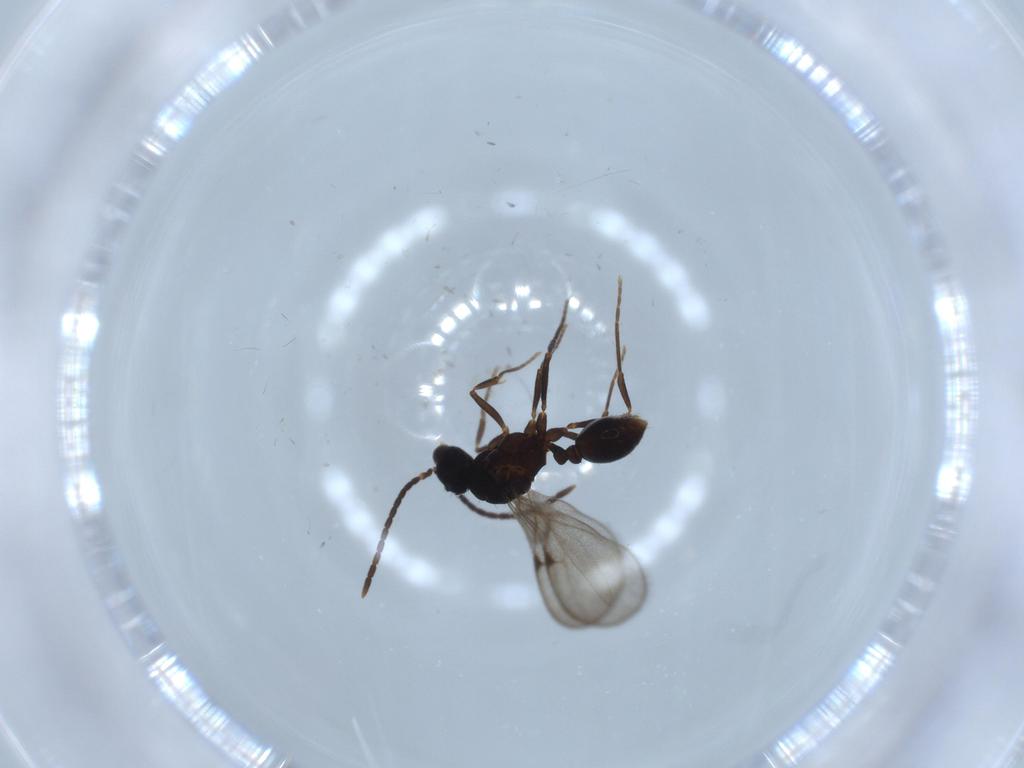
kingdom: Animalia
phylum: Arthropoda
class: Insecta
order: Hymenoptera
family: Formicidae
